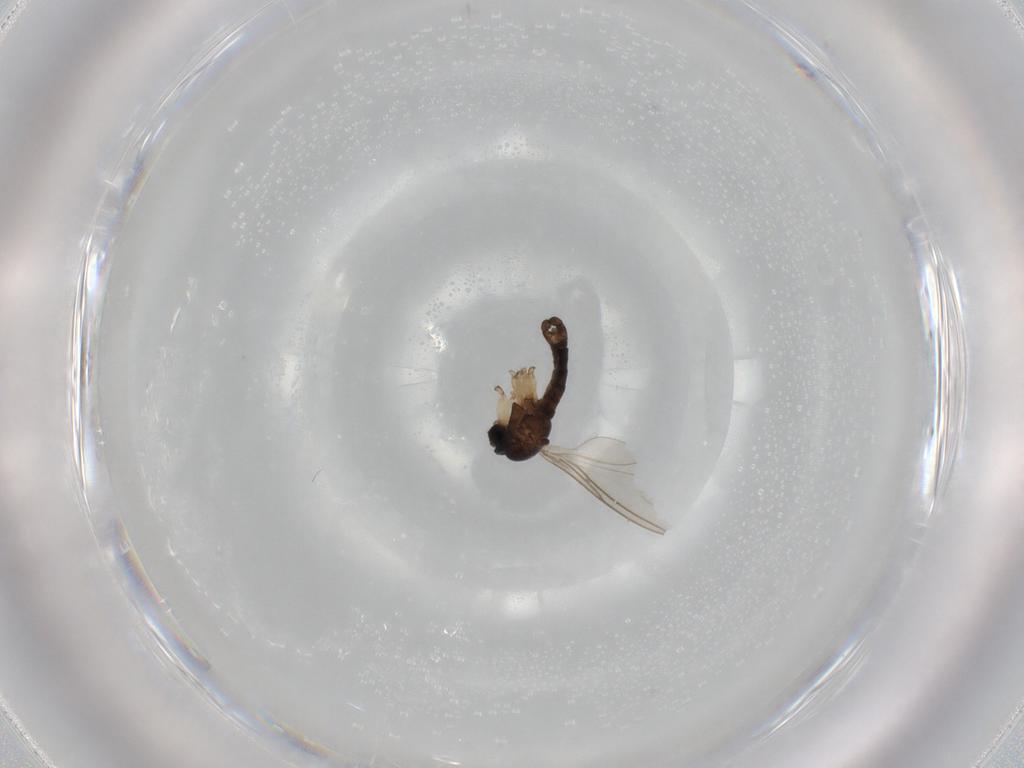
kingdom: Animalia
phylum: Arthropoda
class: Insecta
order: Diptera
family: Sciaridae
